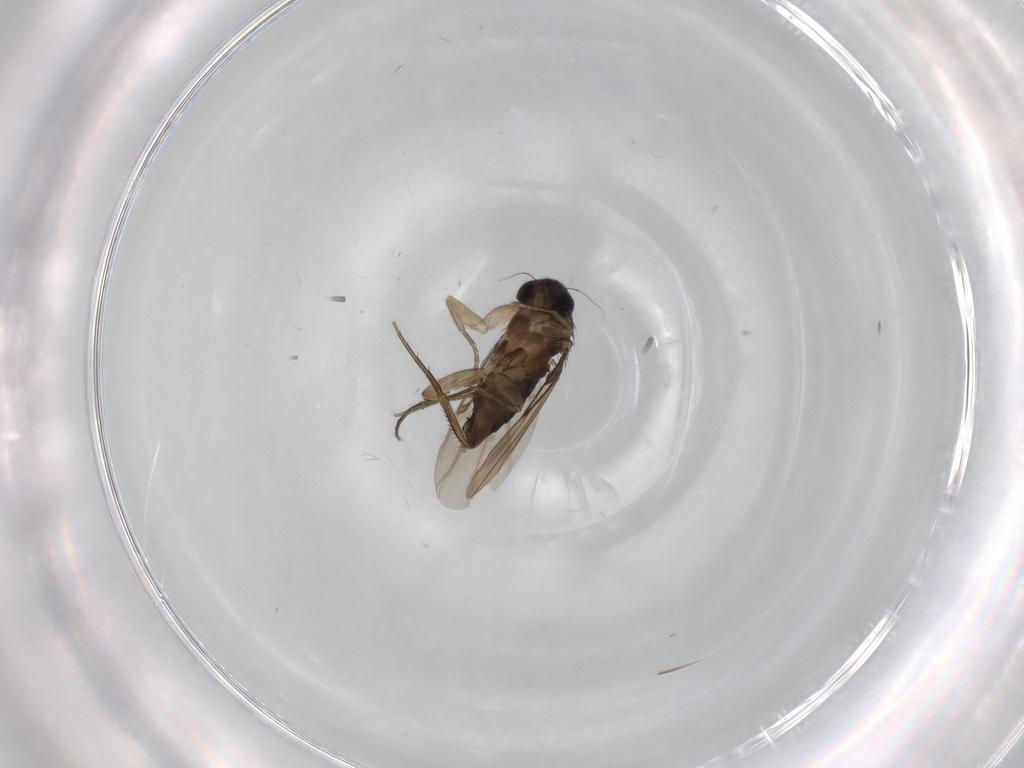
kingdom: Animalia
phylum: Arthropoda
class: Insecta
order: Diptera
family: Phoridae
